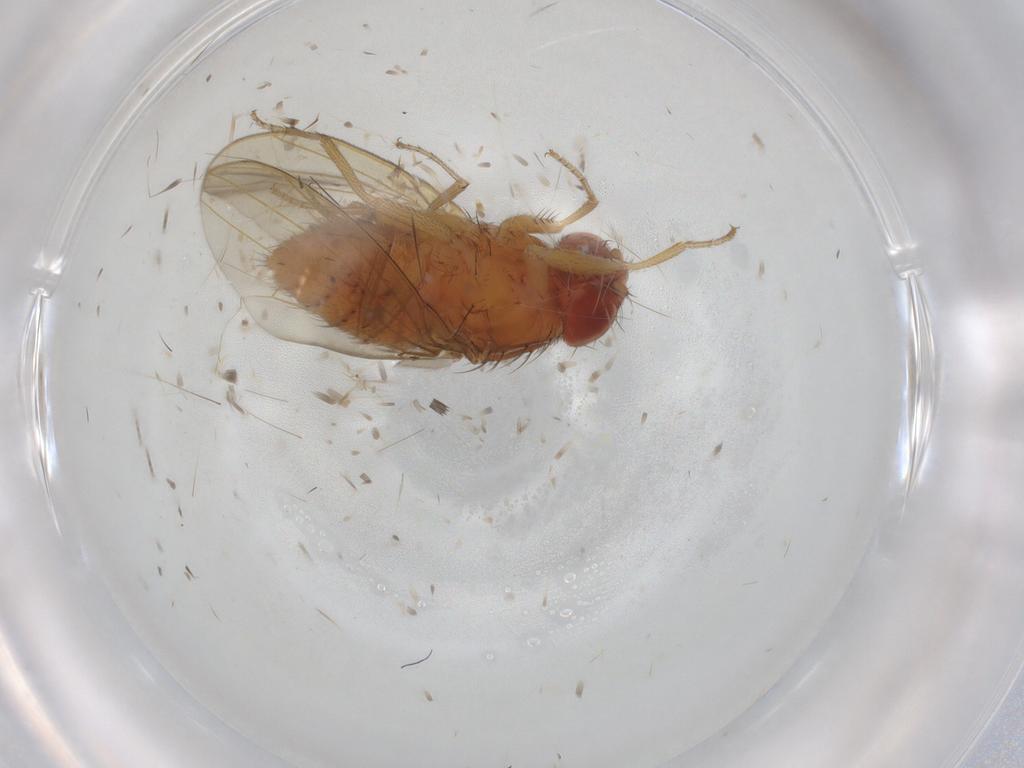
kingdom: Animalia
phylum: Arthropoda
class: Insecta
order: Diptera
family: Drosophilidae
